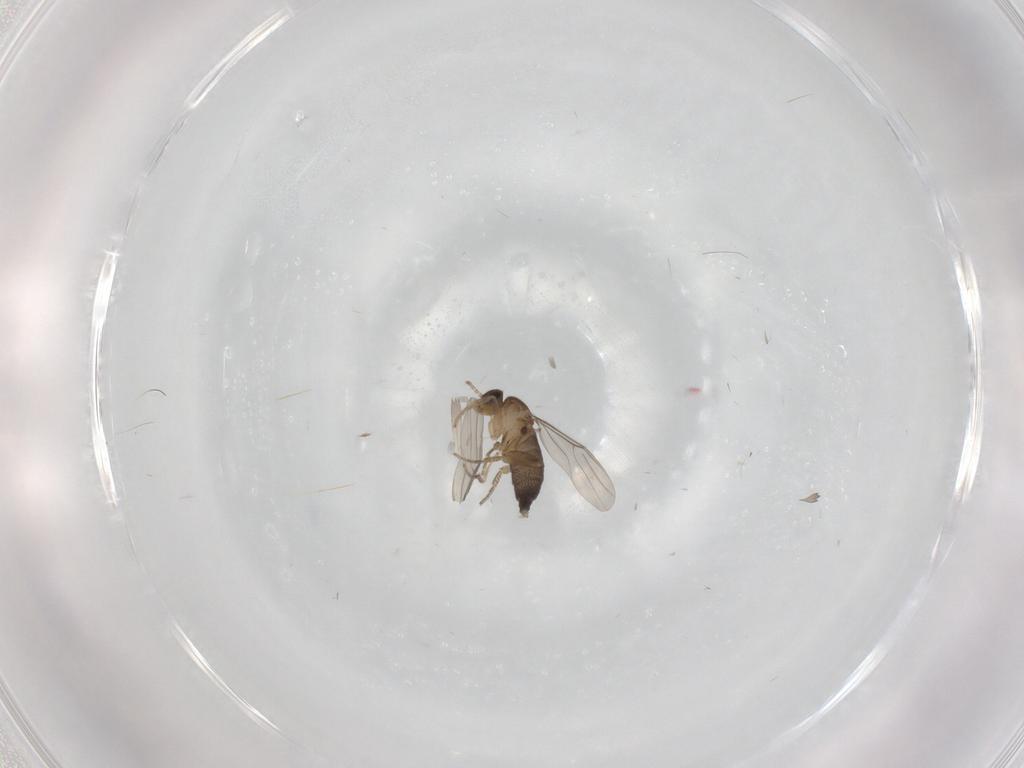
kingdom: Animalia
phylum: Arthropoda
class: Insecta
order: Diptera
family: Phoridae
